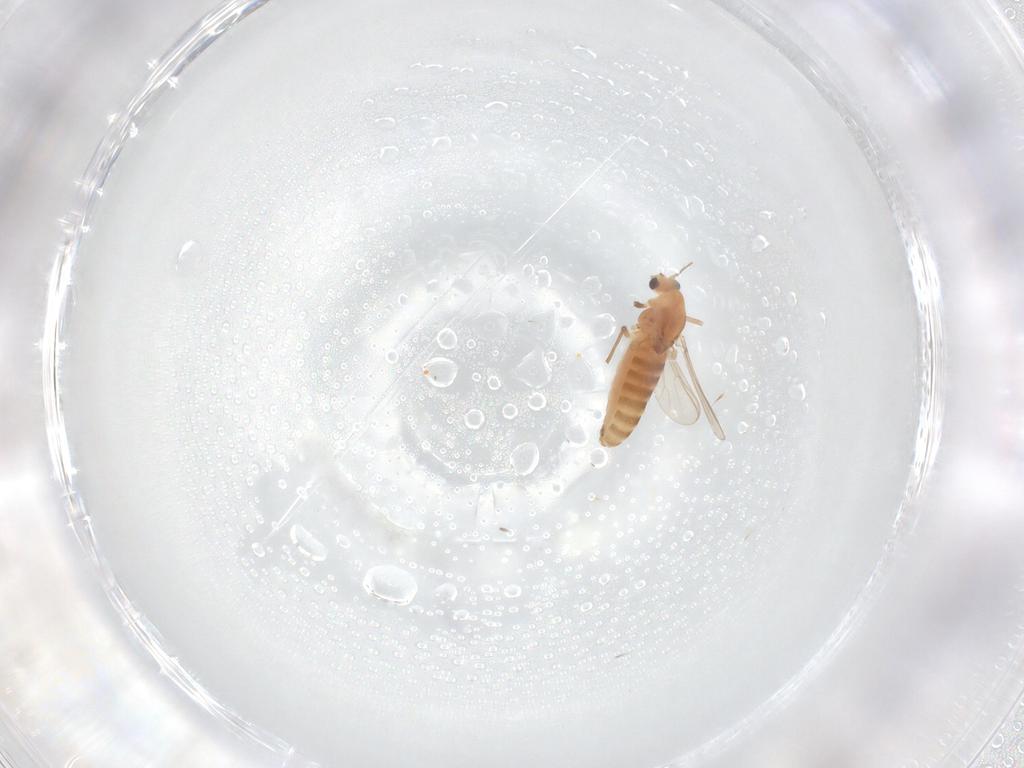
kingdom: Animalia
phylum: Arthropoda
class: Insecta
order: Diptera
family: Chironomidae
